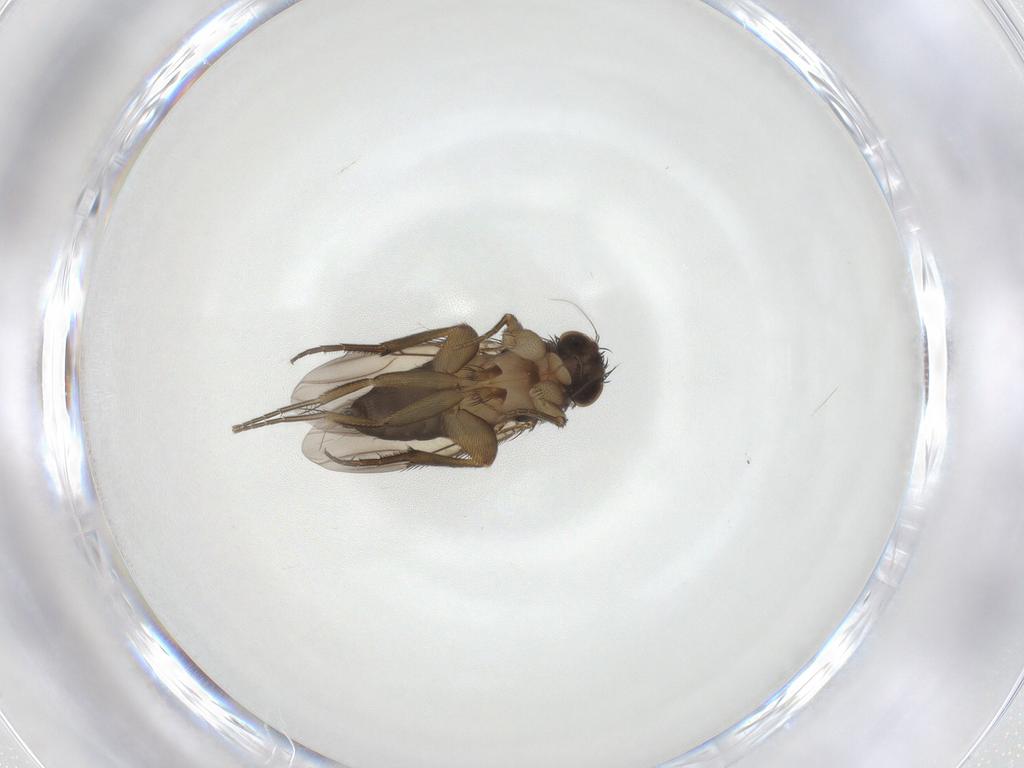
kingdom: Animalia
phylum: Arthropoda
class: Insecta
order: Diptera
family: Phoridae
